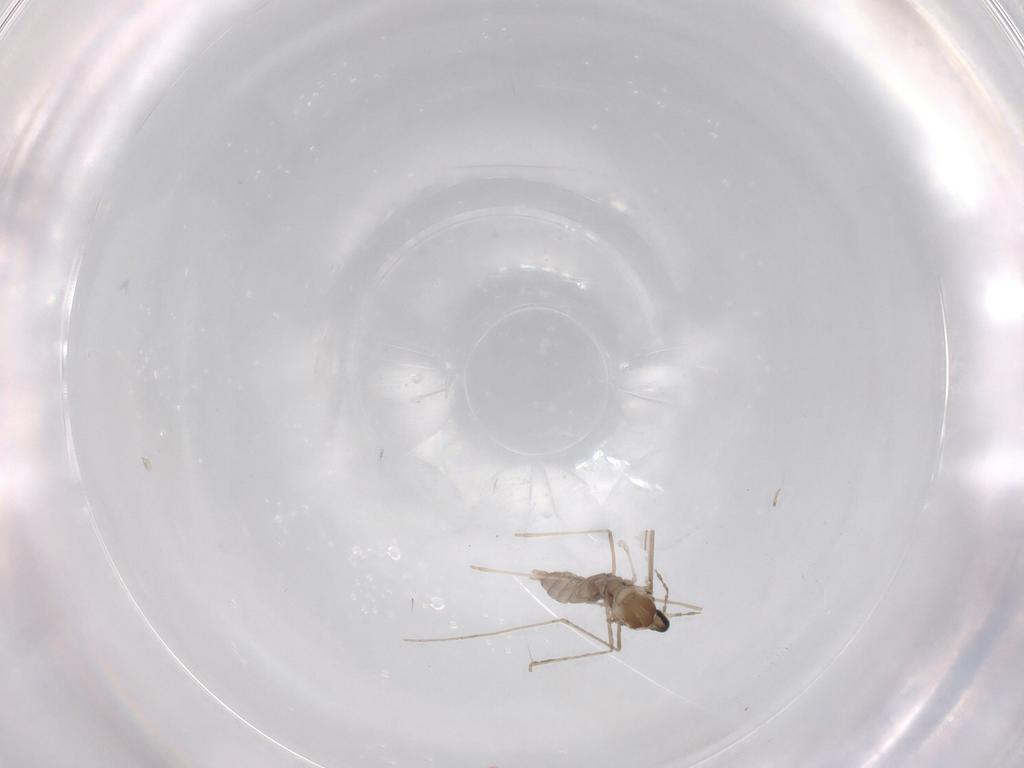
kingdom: Animalia
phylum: Arthropoda
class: Insecta
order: Diptera
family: Cecidomyiidae
